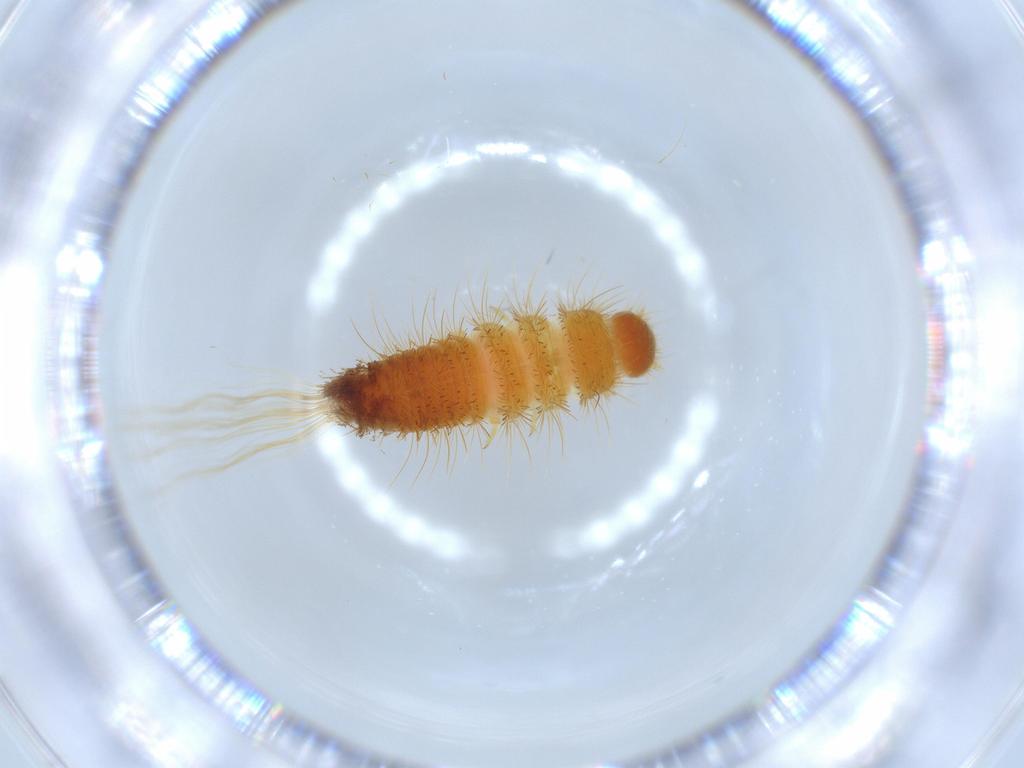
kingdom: Animalia
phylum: Arthropoda
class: Insecta
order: Coleoptera
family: Dermestidae
